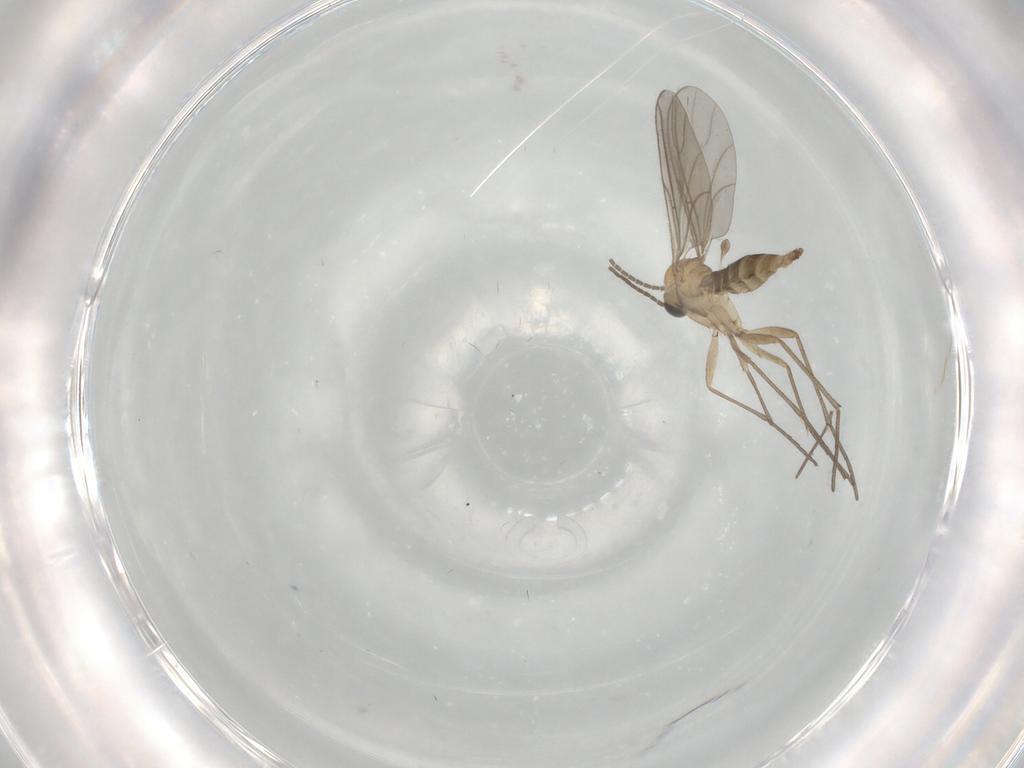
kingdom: Animalia
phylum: Arthropoda
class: Insecta
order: Diptera
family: Sciaridae
